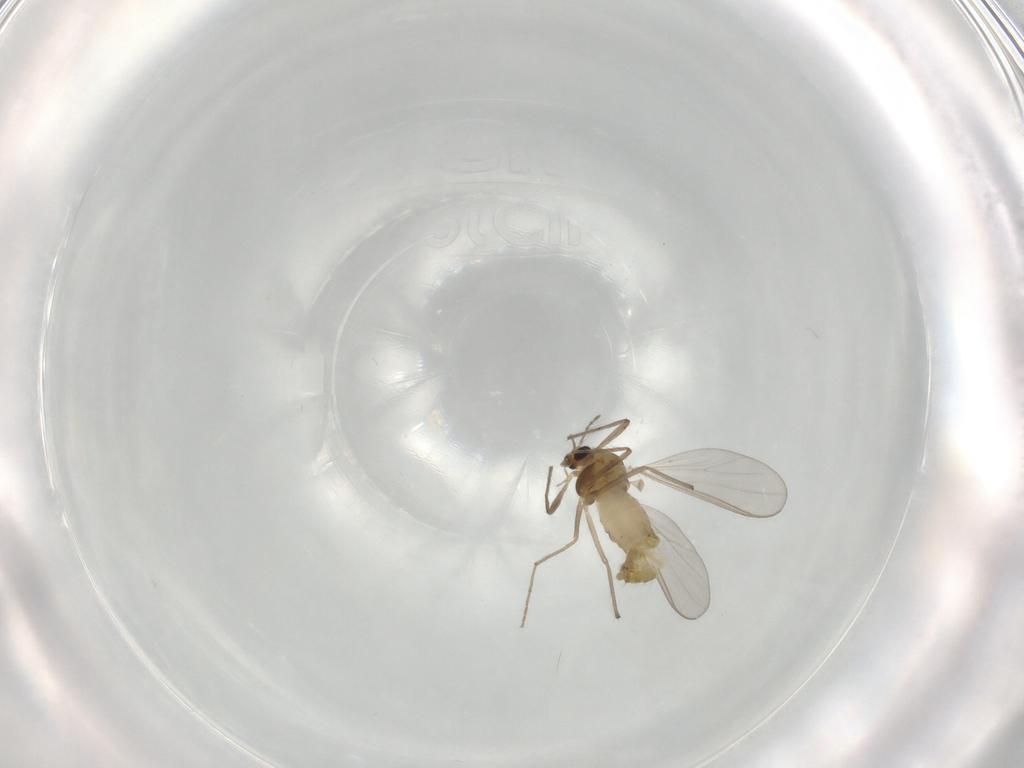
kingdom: Animalia
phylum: Arthropoda
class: Insecta
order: Diptera
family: Chironomidae
